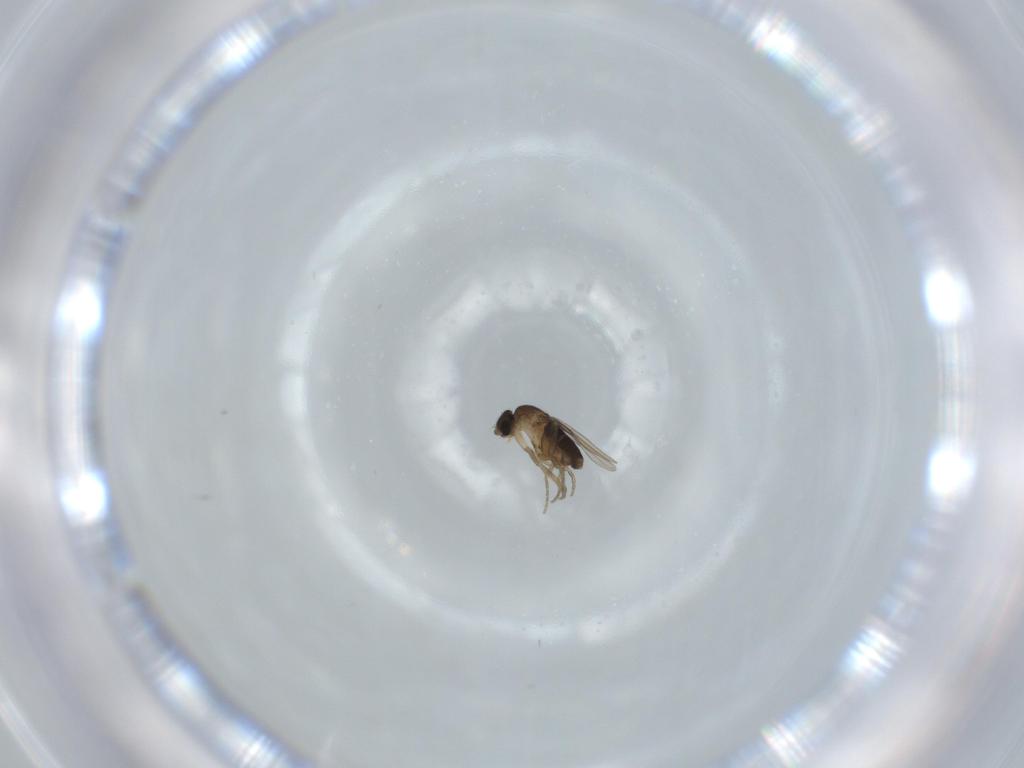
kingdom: Animalia
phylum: Arthropoda
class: Insecta
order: Diptera
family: Phoridae
